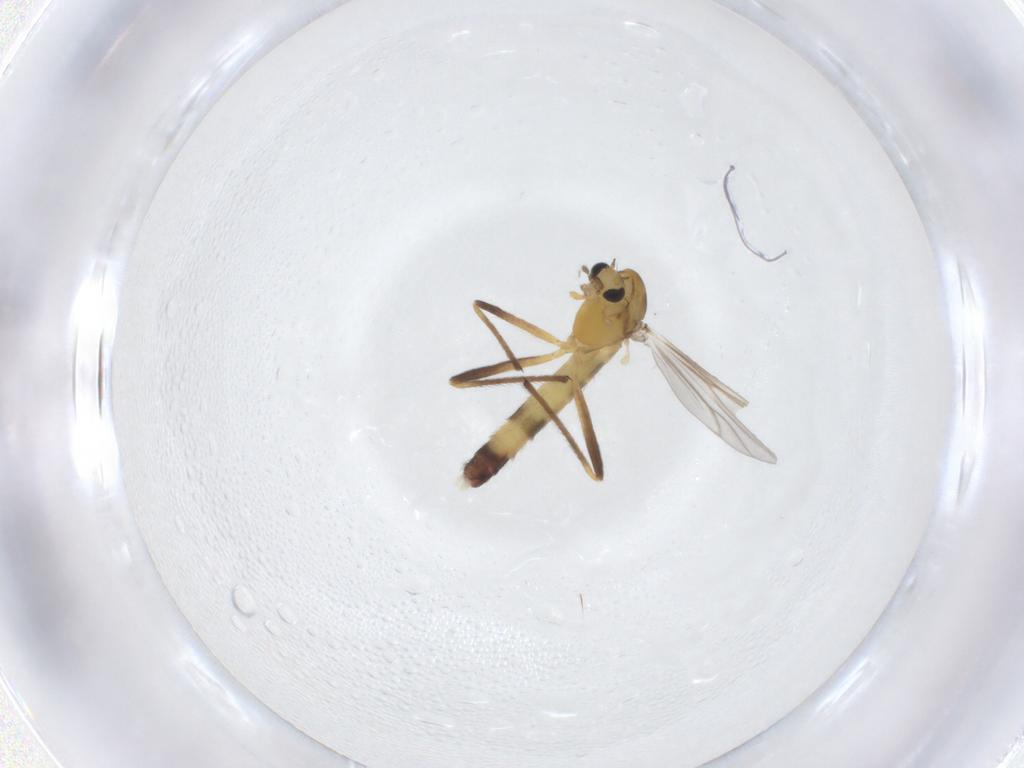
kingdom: Animalia
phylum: Arthropoda
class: Insecta
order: Diptera
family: Chironomidae
